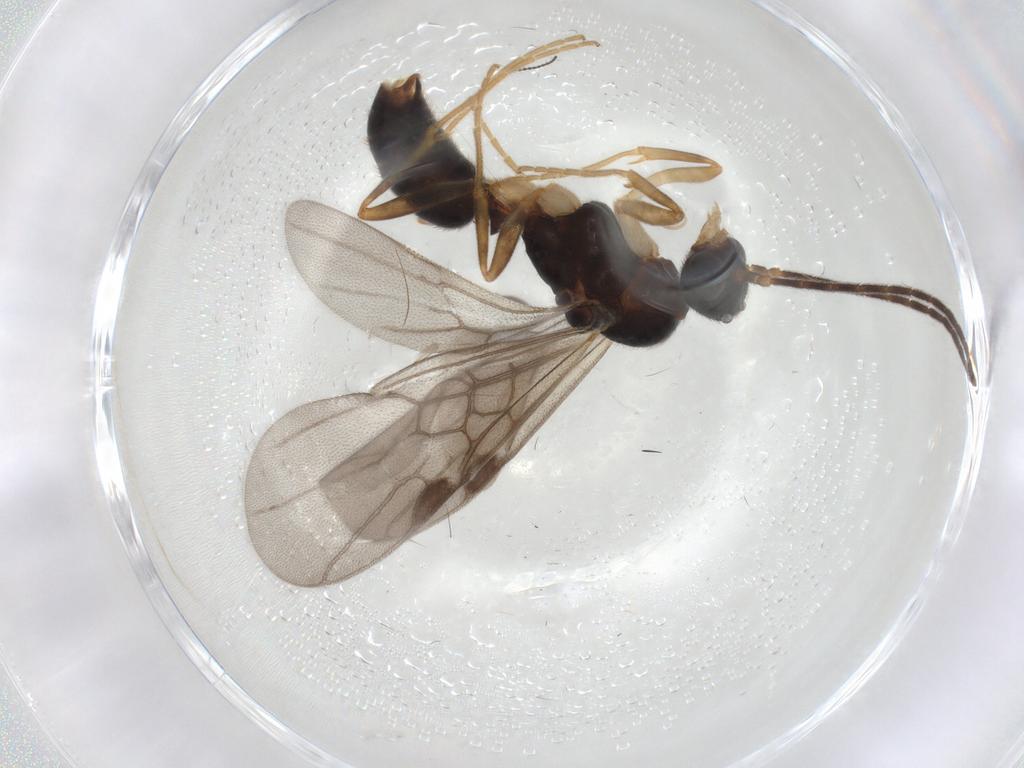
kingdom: Animalia
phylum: Arthropoda
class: Insecta
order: Hymenoptera
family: Formicidae
